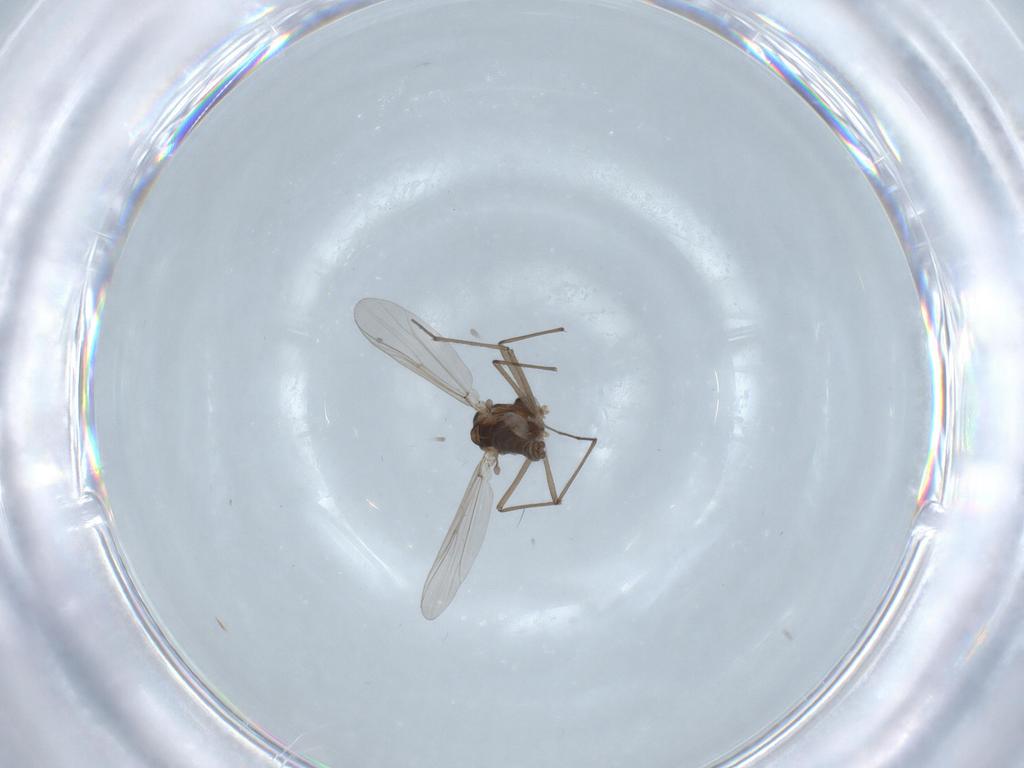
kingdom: Animalia
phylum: Arthropoda
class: Insecta
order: Diptera
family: Chironomidae
